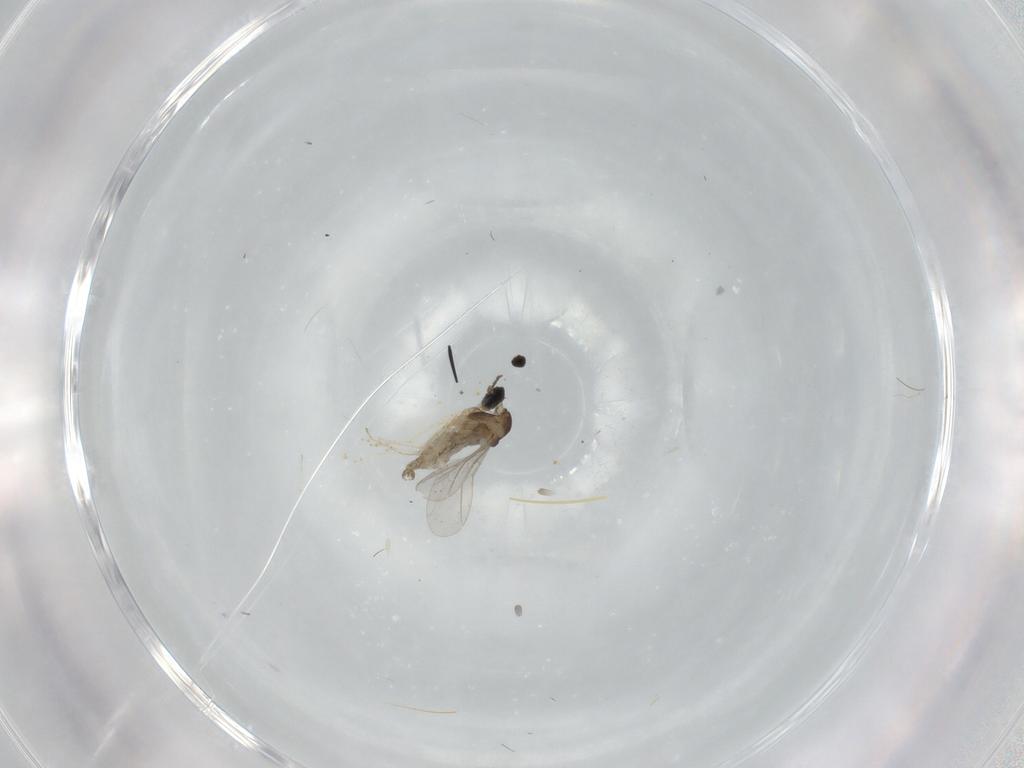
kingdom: Animalia
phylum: Arthropoda
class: Insecta
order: Diptera
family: Cecidomyiidae
